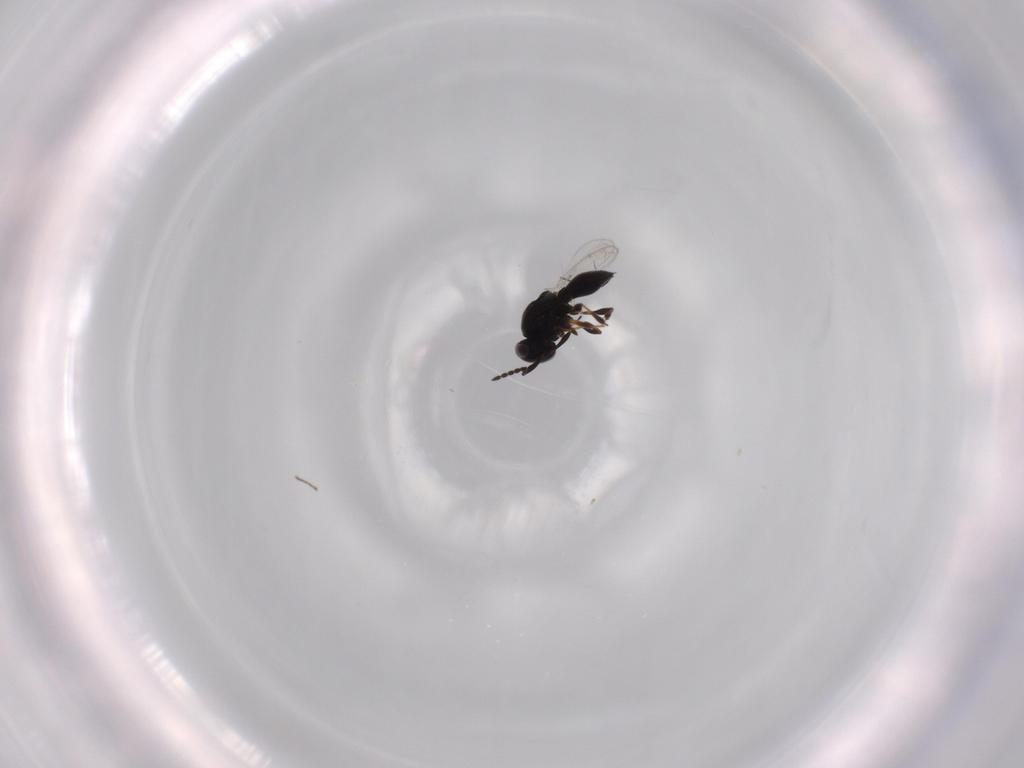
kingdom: Animalia
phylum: Arthropoda
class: Insecta
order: Hymenoptera
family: Platygastridae
